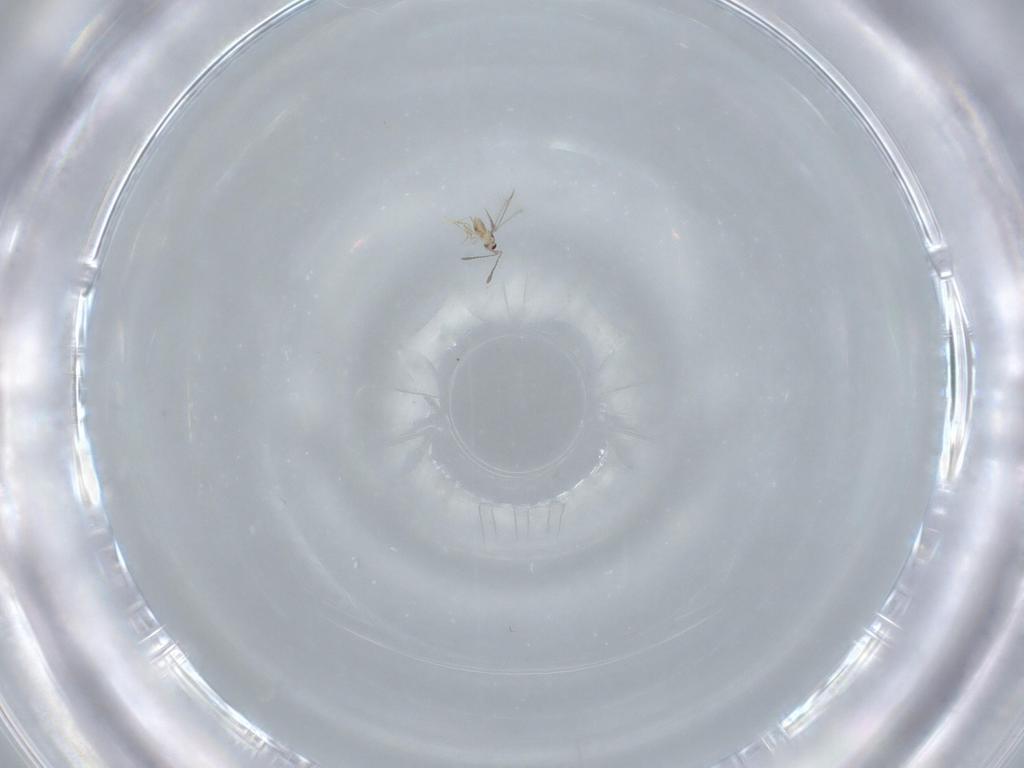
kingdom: Animalia
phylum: Arthropoda
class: Insecta
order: Hymenoptera
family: Mymaridae
